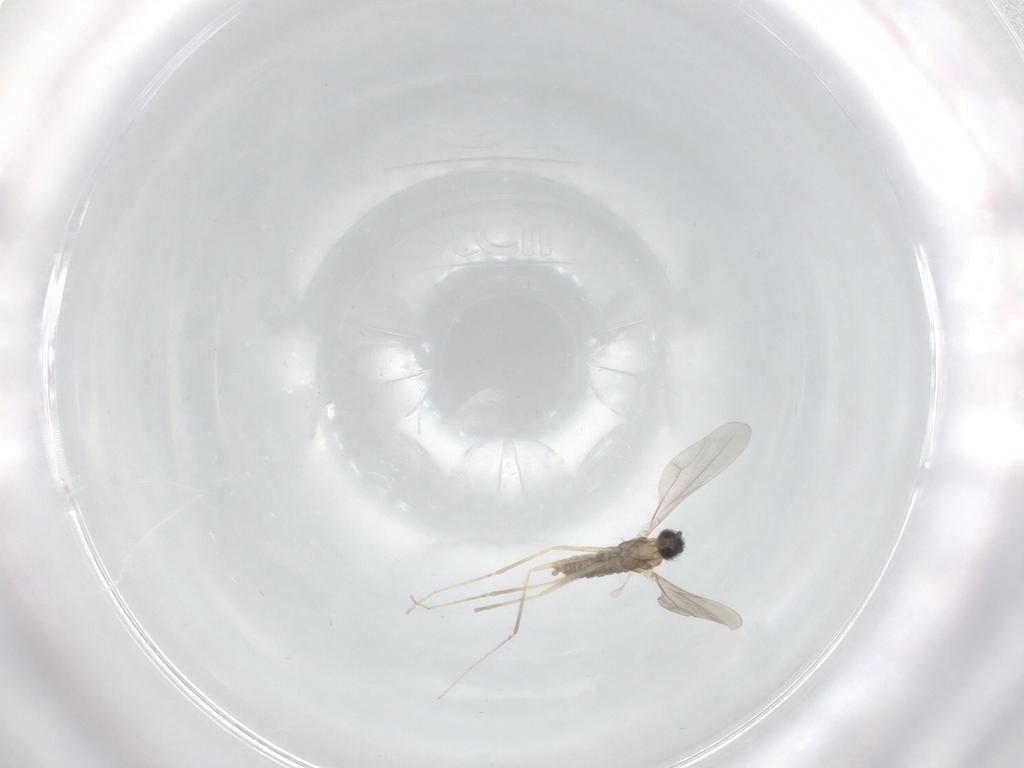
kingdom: Animalia
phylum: Arthropoda
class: Insecta
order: Diptera
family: Cecidomyiidae
